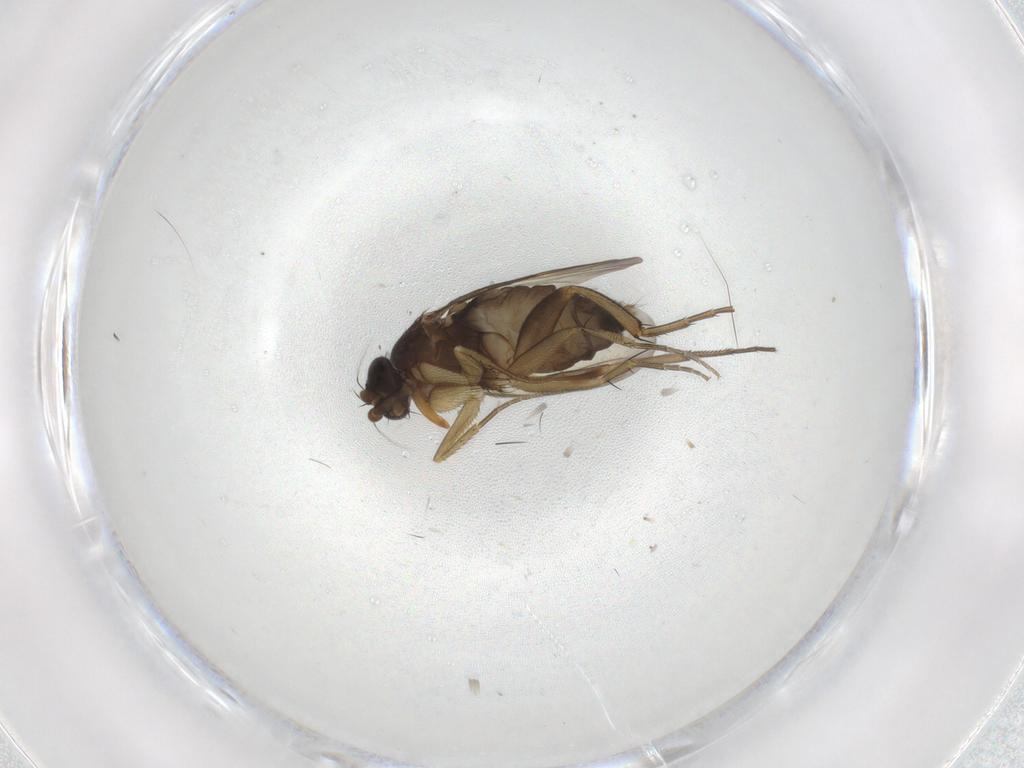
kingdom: Animalia
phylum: Arthropoda
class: Insecta
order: Diptera
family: Phoridae
